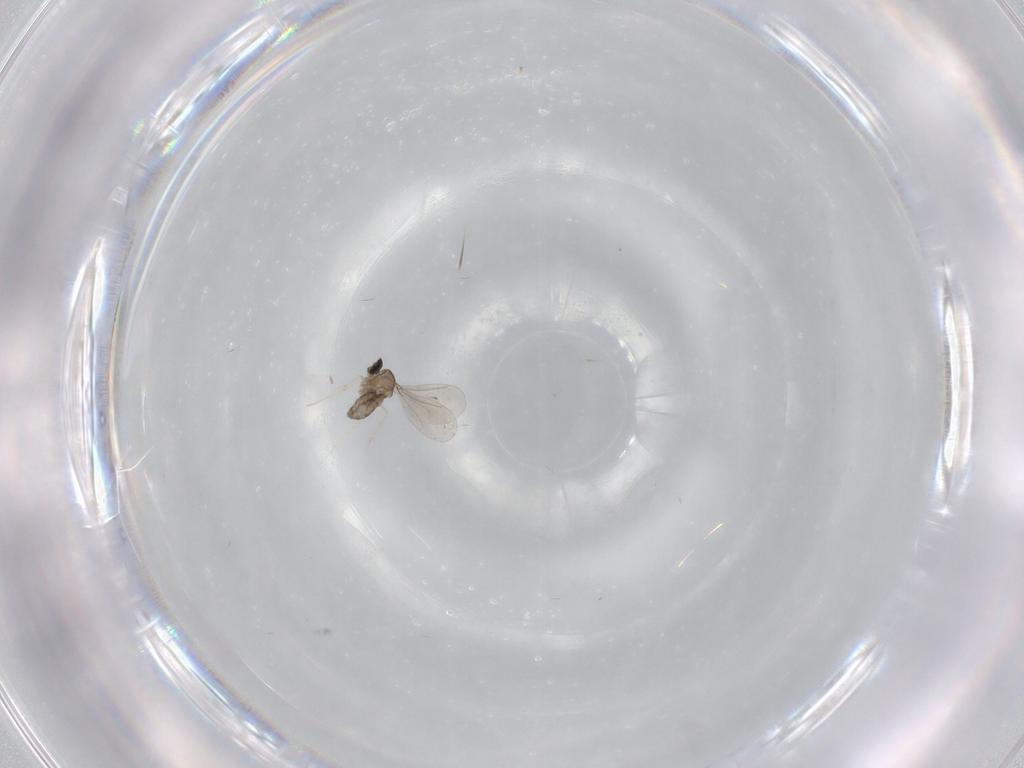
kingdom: Animalia
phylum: Arthropoda
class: Insecta
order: Diptera
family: Cecidomyiidae
